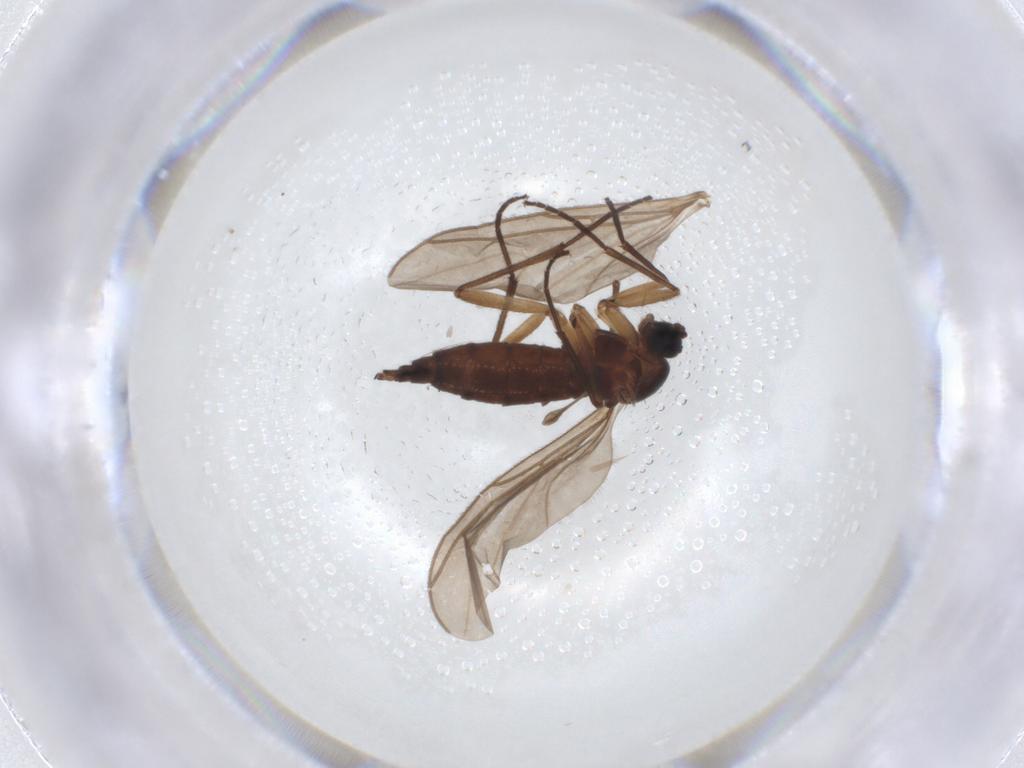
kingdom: Animalia
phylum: Arthropoda
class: Insecta
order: Diptera
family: Sciaridae
